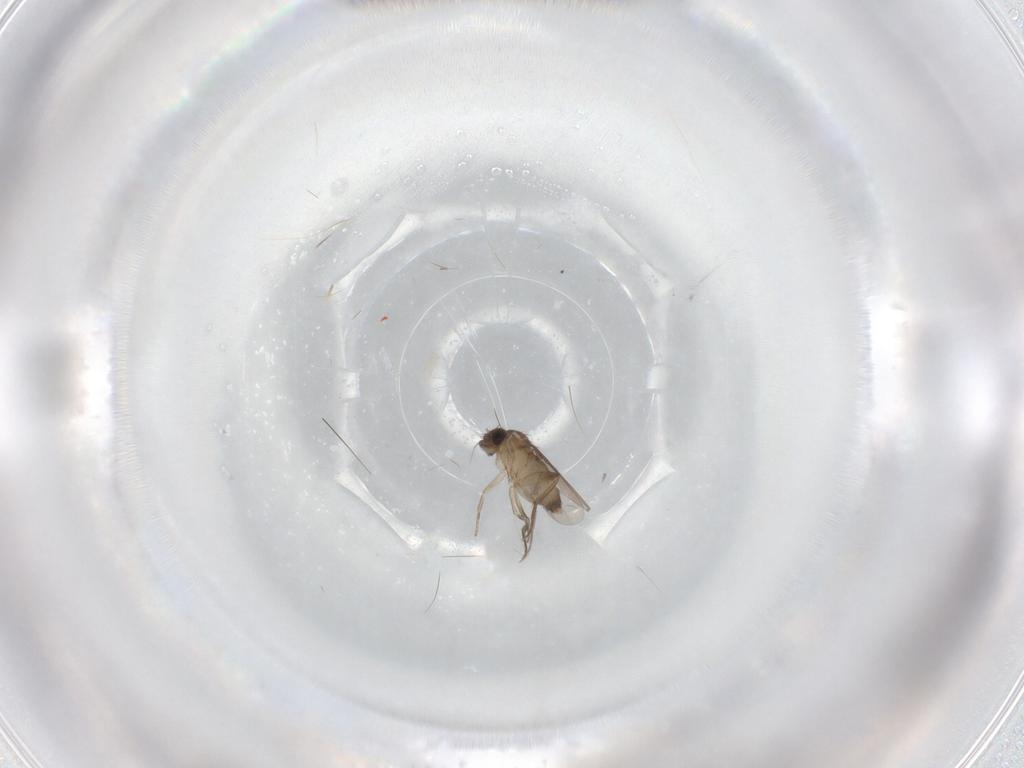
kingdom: Animalia
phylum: Arthropoda
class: Insecta
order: Diptera
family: Phoridae
